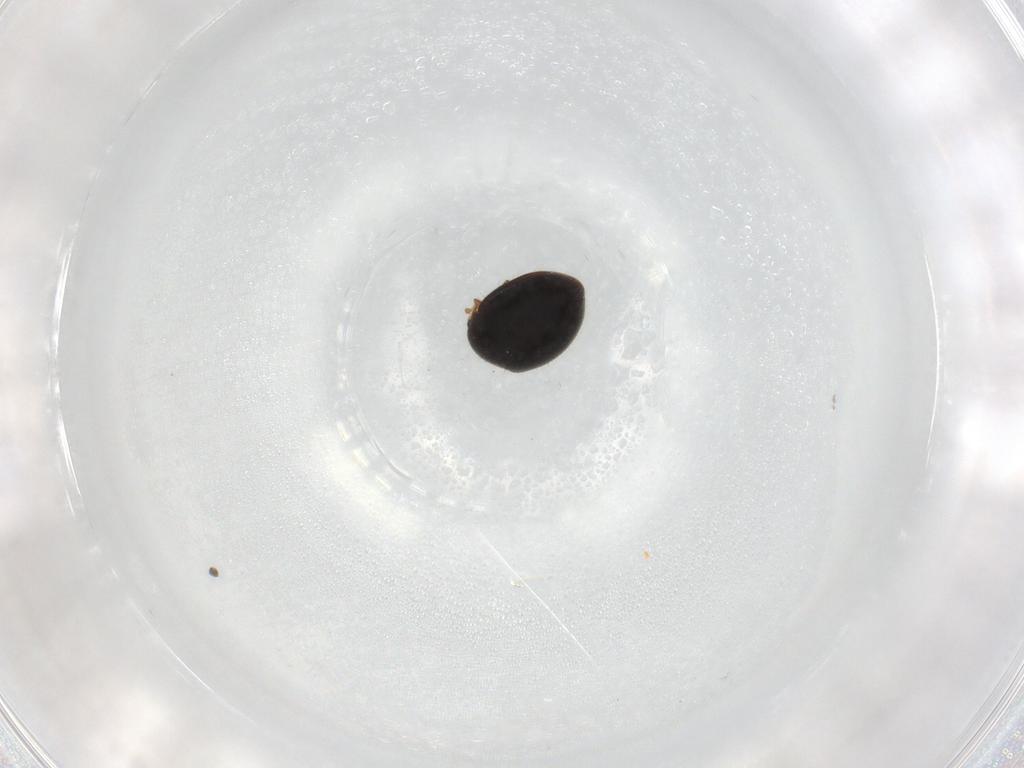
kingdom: Animalia
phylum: Arthropoda
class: Insecta
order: Coleoptera
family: Coccinellidae
